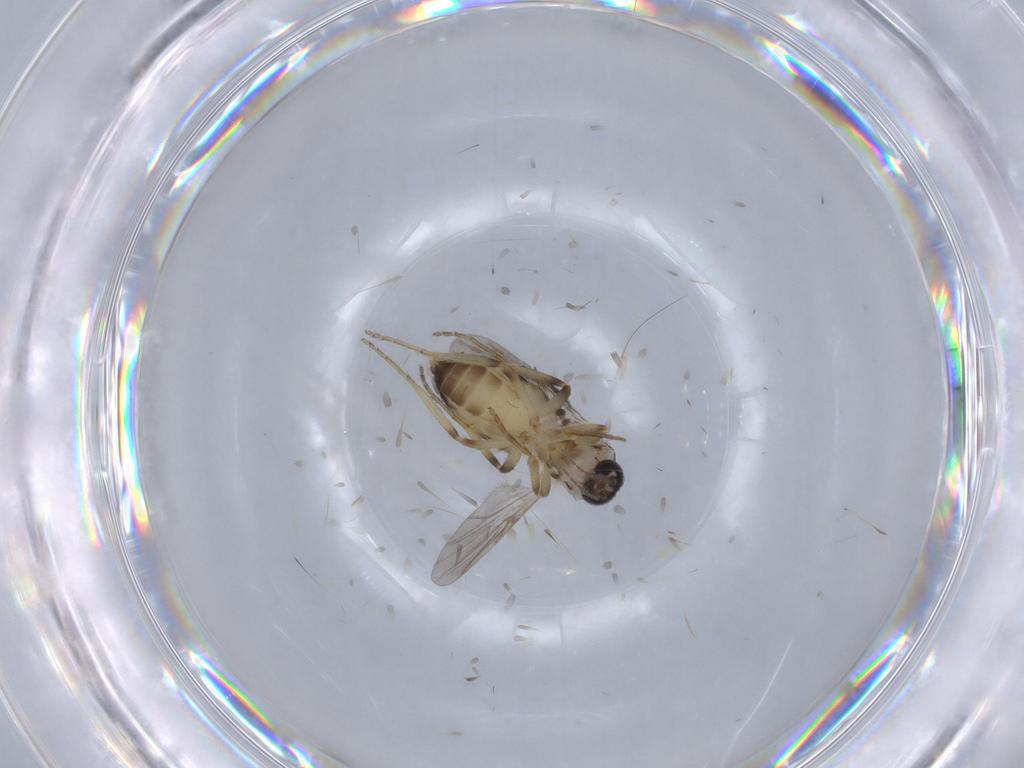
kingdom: Animalia
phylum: Arthropoda
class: Insecta
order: Diptera
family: Ceratopogonidae
